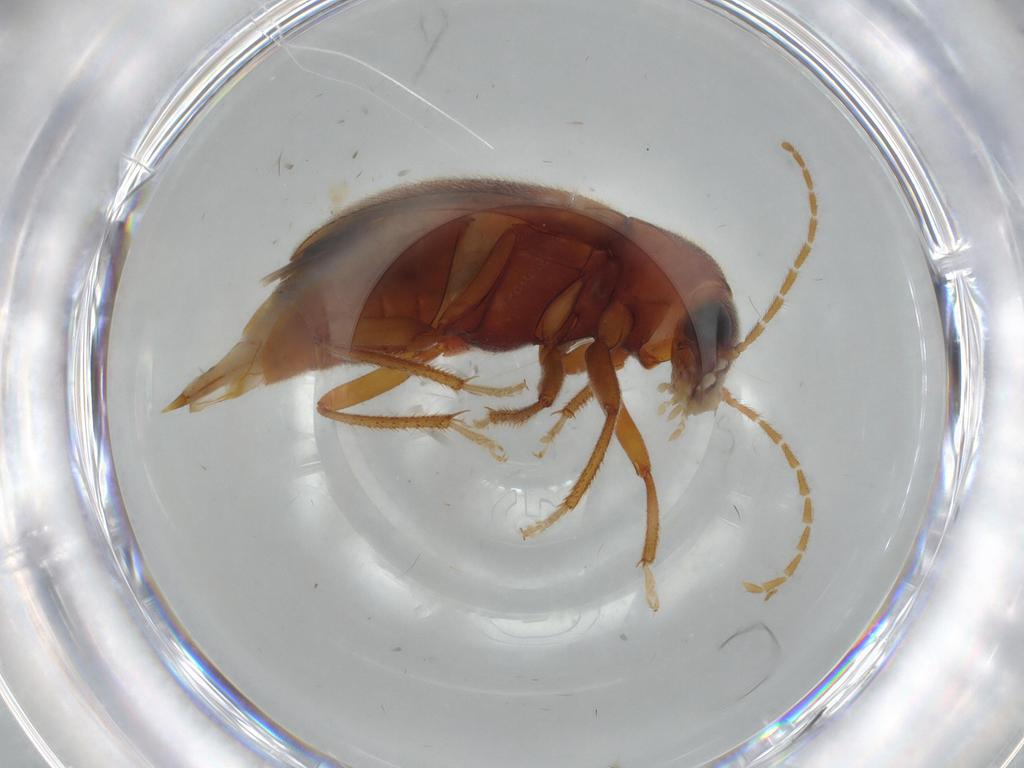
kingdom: Animalia
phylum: Arthropoda
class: Insecta
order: Coleoptera
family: Ptilodactylidae
